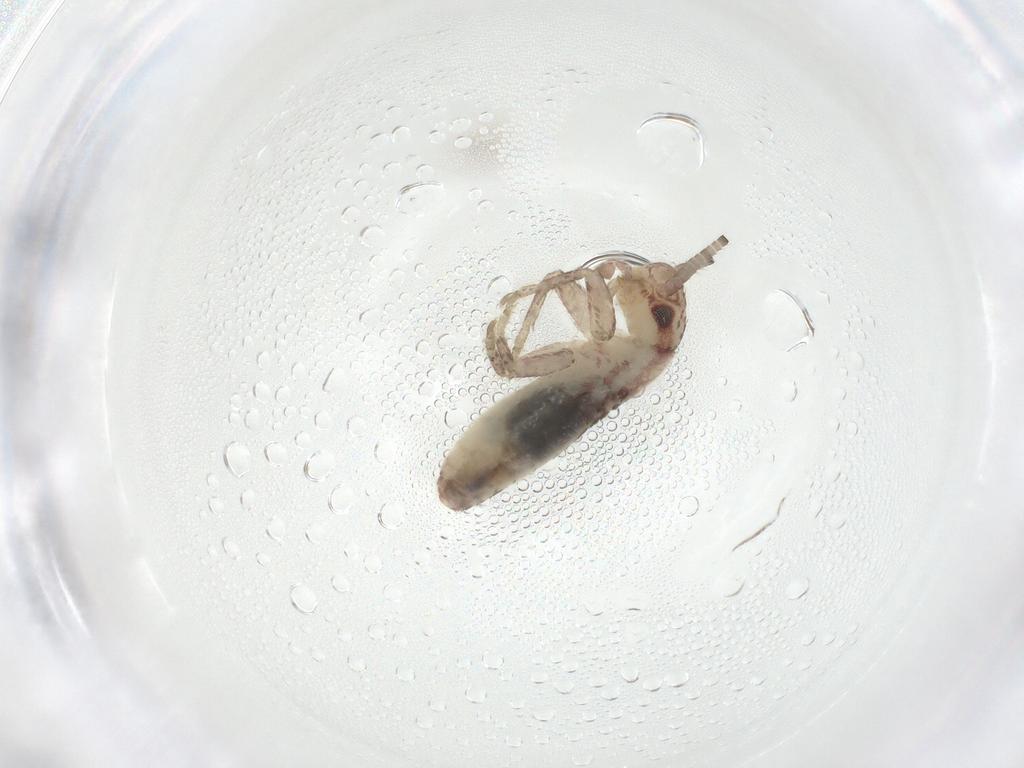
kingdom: Animalia
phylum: Arthropoda
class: Insecta
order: Orthoptera
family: Mogoplistidae
